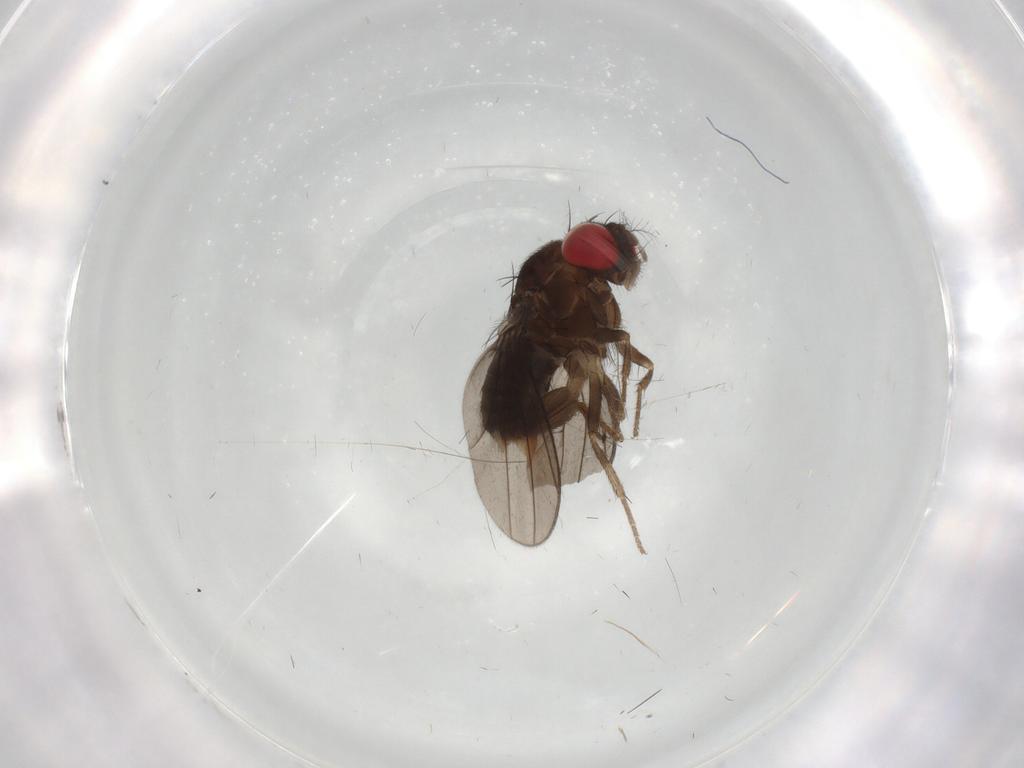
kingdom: Animalia
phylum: Arthropoda
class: Insecta
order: Diptera
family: Drosophilidae
